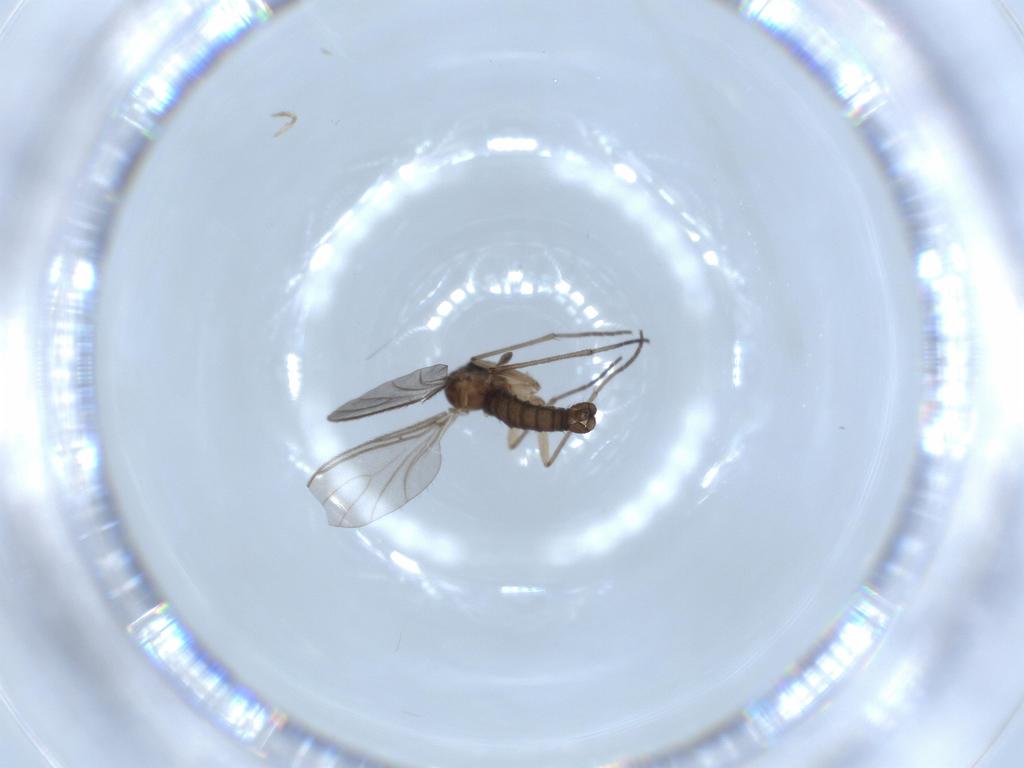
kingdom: Animalia
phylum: Arthropoda
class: Insecta
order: Diptera
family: Sciaridae
